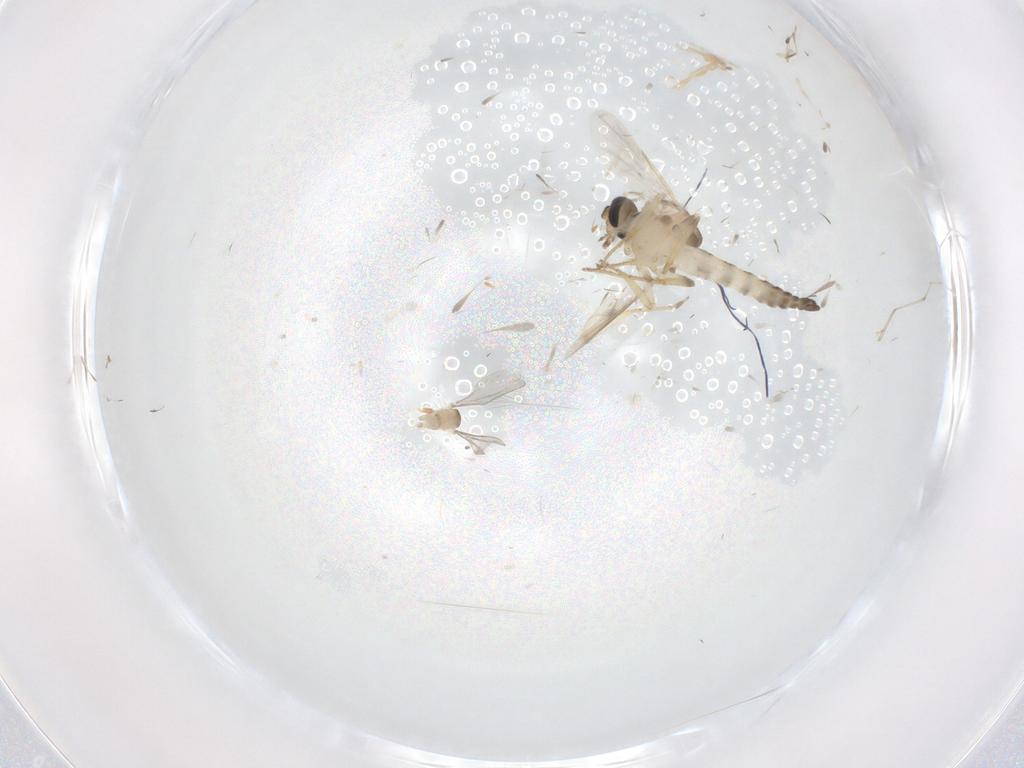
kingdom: Animalia
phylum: Arthropoda
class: Insecta
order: Diptera
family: Ceratopogonidae
